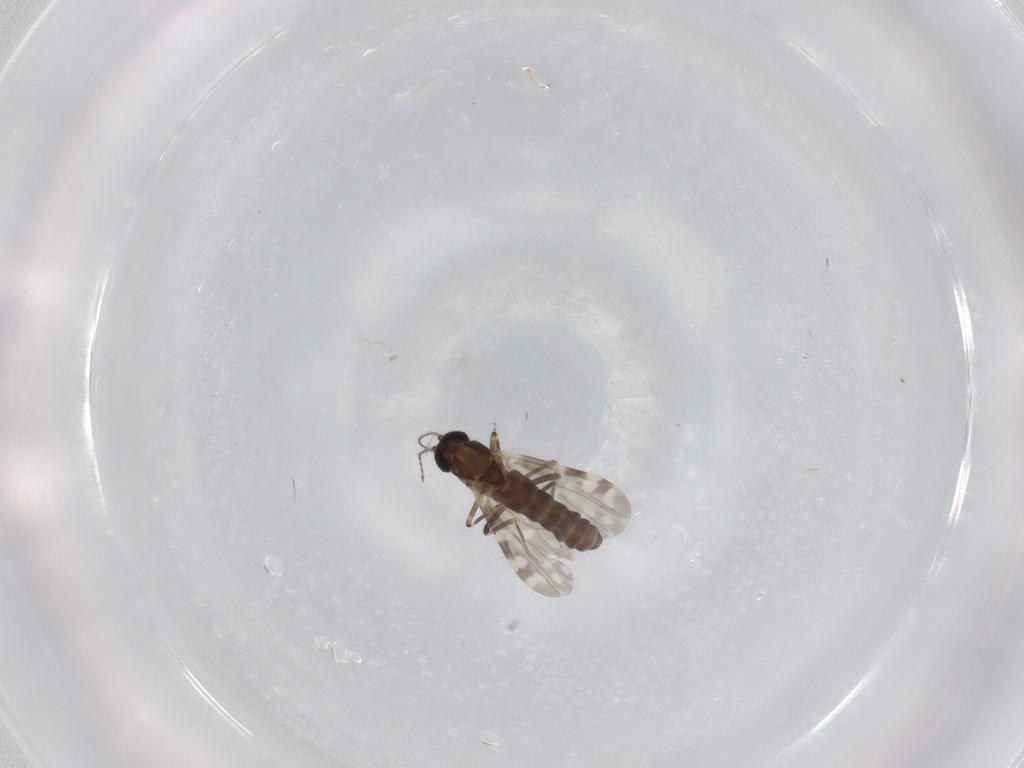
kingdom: Animalia
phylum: Arthropoda
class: Insecta
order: Diptera
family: Ceratopogonidae
